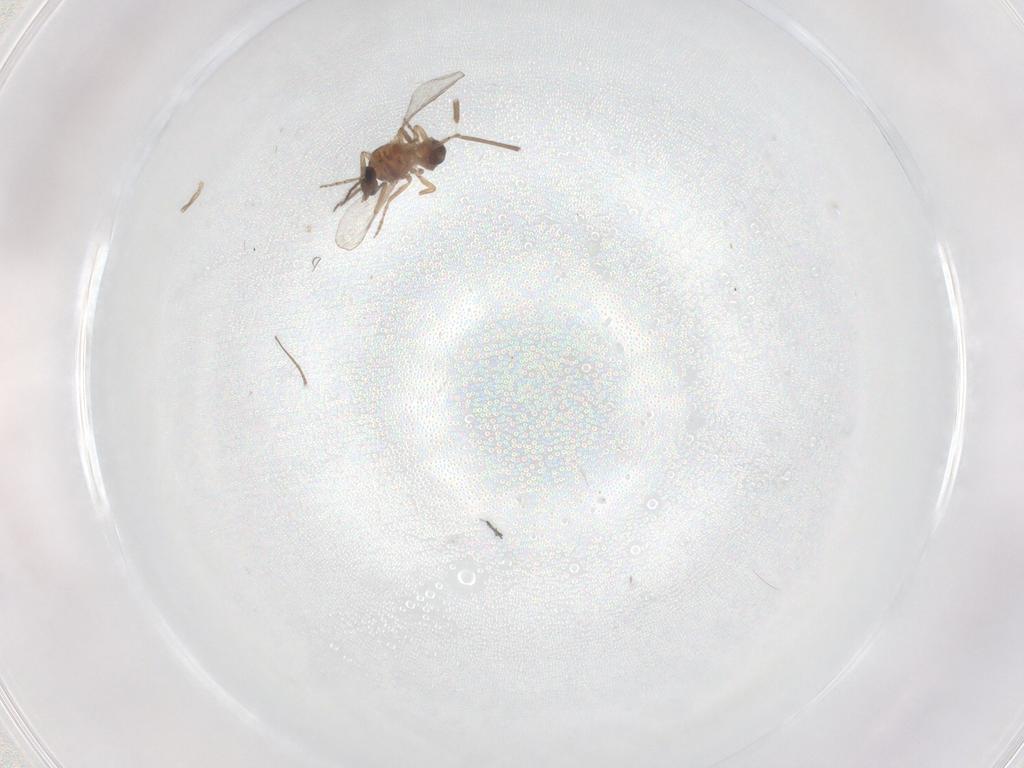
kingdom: Animalia
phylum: Arthropoda
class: Insecta
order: Diptera
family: Chironomidae
